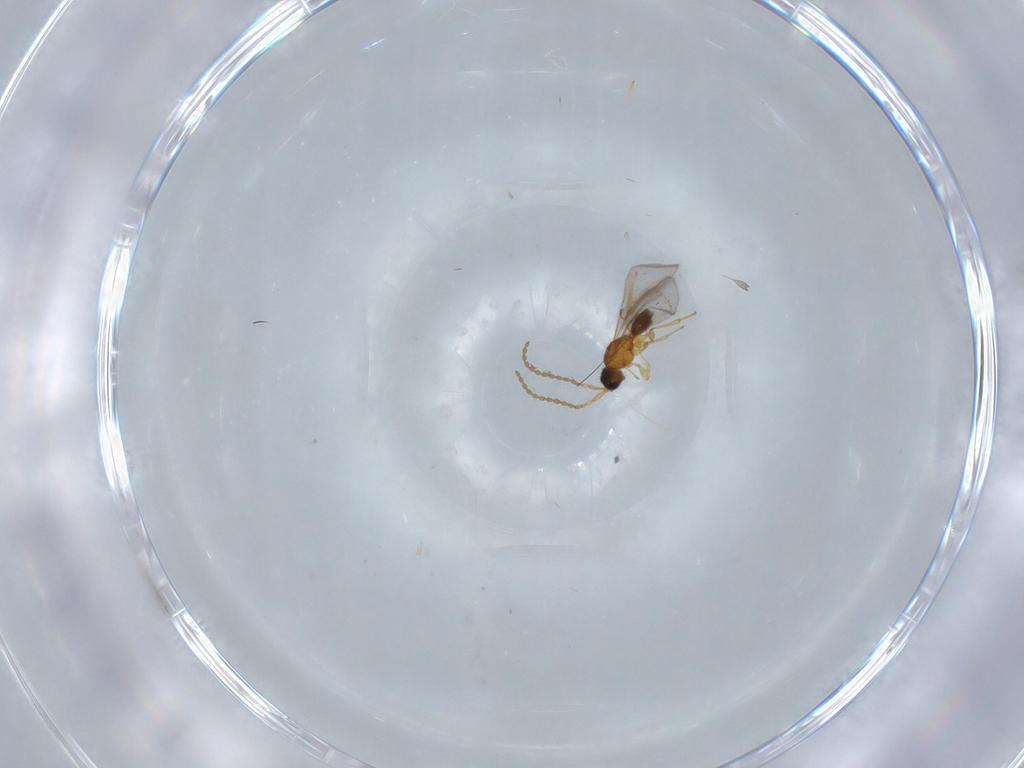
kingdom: Animalia
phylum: Arthropoda
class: Insecta
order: Hymenoptera
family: Diapriidae
